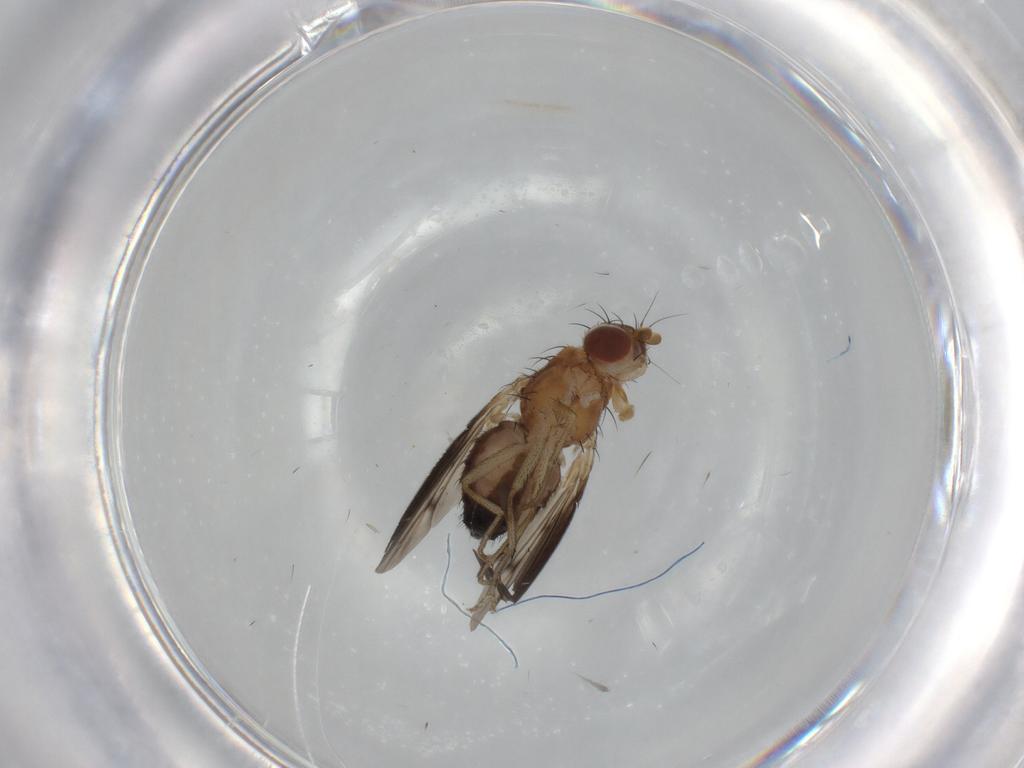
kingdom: Animalia
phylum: Arthropoda
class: Insecta
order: Diptera
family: Heleomyzidae
